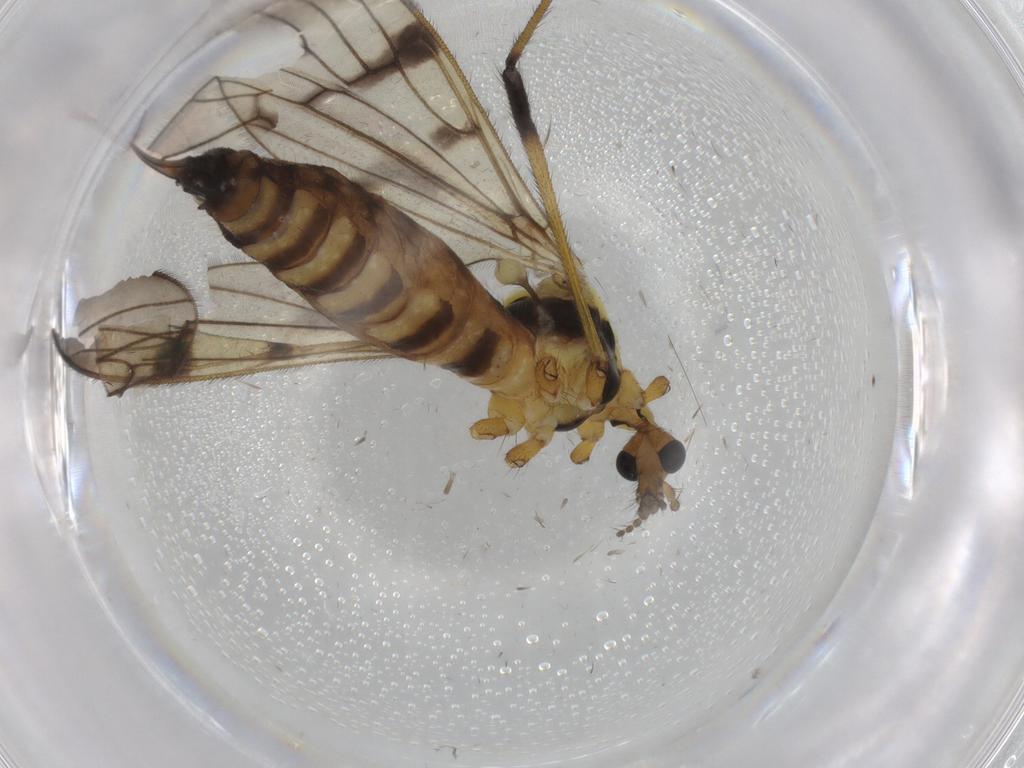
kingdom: Animalia
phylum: Arthropoda
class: Insecta
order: Diptera
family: Limoniidae
